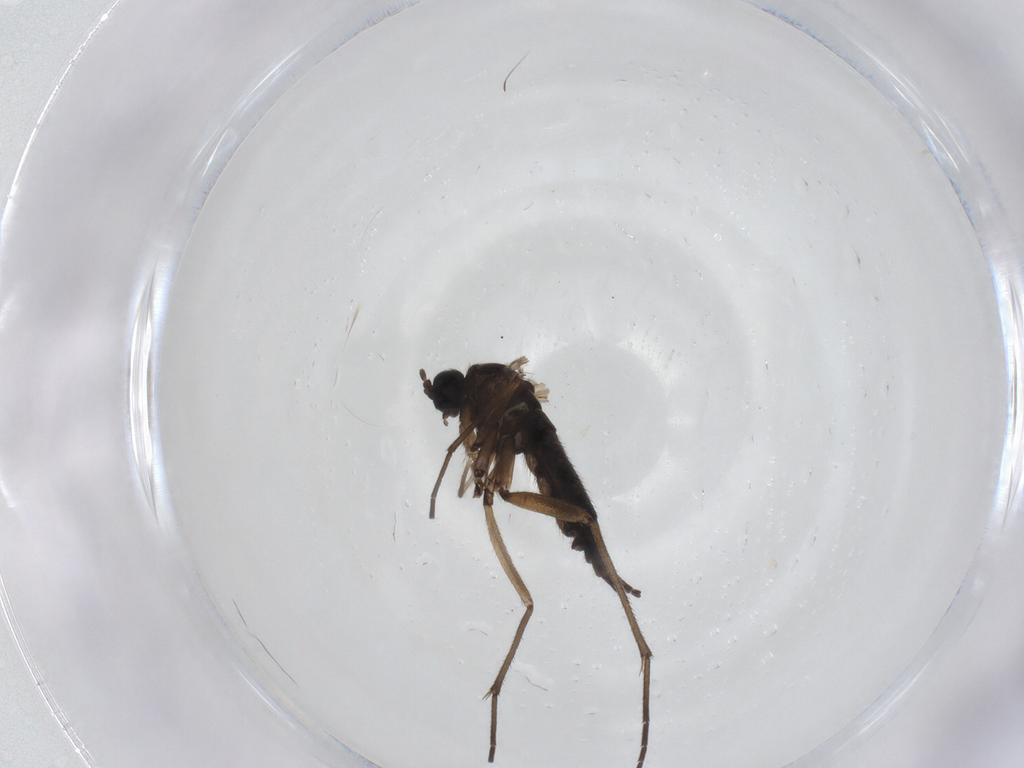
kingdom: Animalia
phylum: Arthropoda
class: Insecta
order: Diptera
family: Sciaridae
